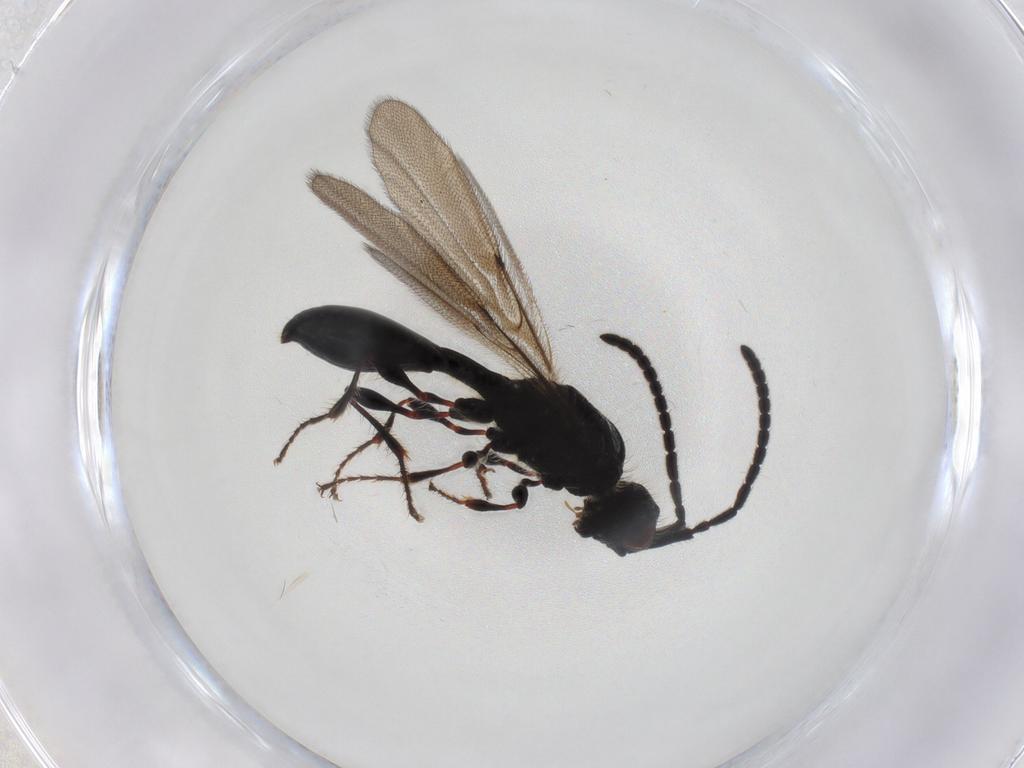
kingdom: Animalia
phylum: Arthropoda
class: Insecta
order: Hymenoptera
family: Diapriidae
